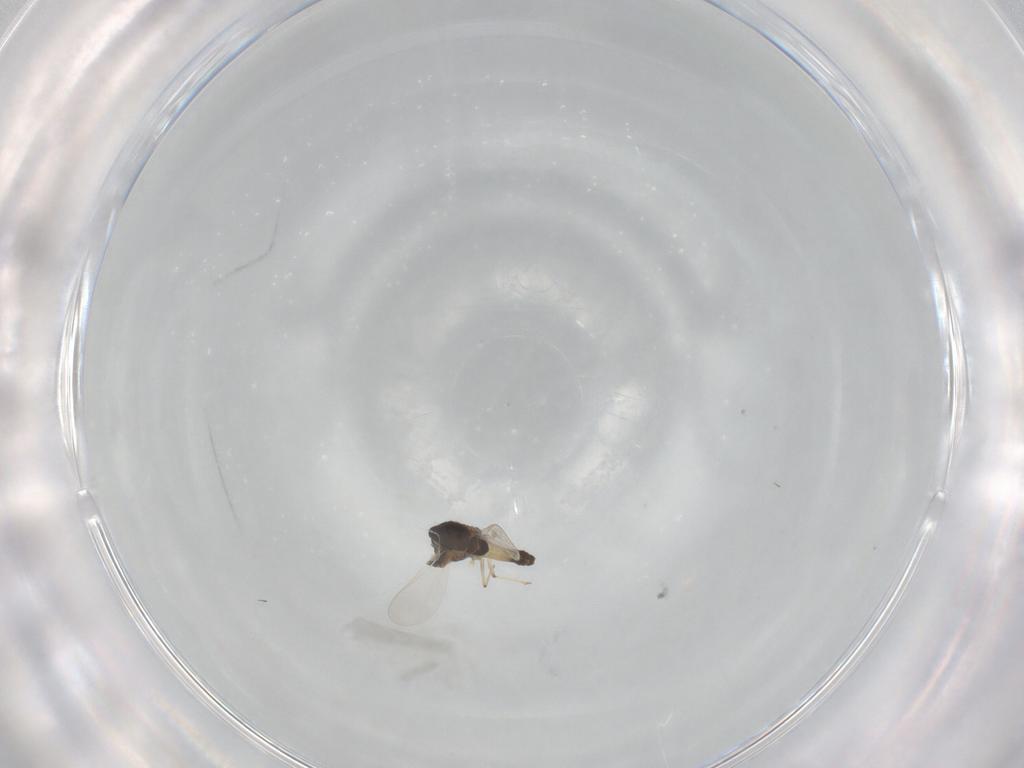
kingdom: Animalia
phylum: Arthropoda
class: Insecta
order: Diptera
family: Chironomidae
